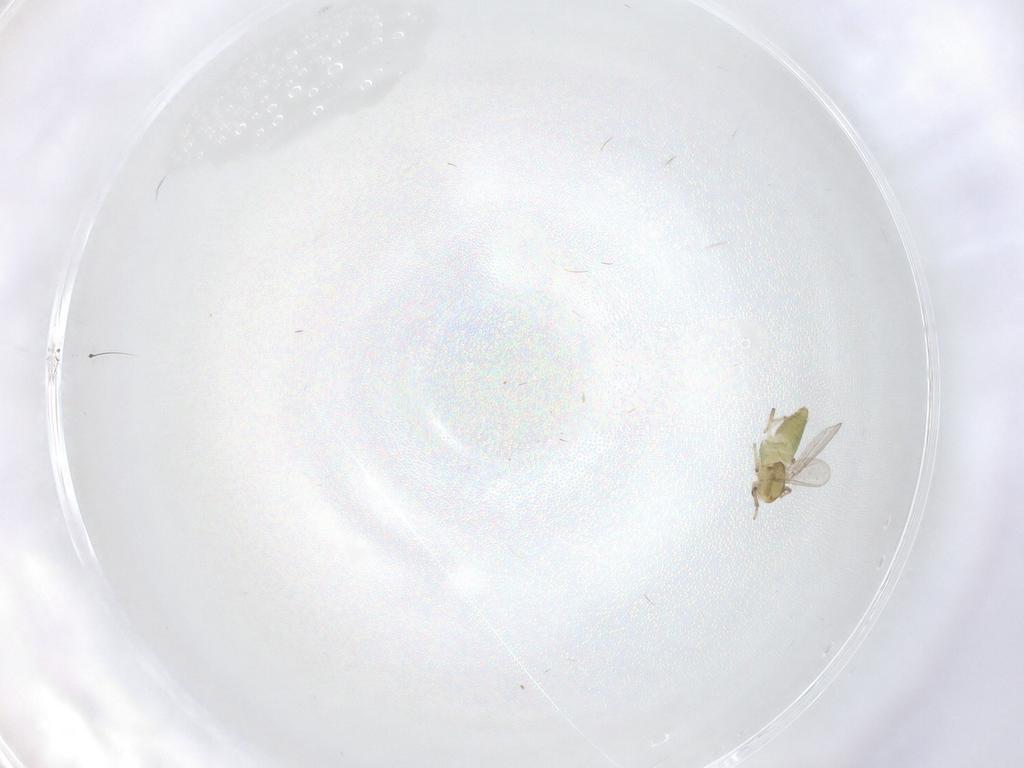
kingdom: Animalia
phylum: Arthropoda
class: Insecta
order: Diptera
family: Chironomidae
